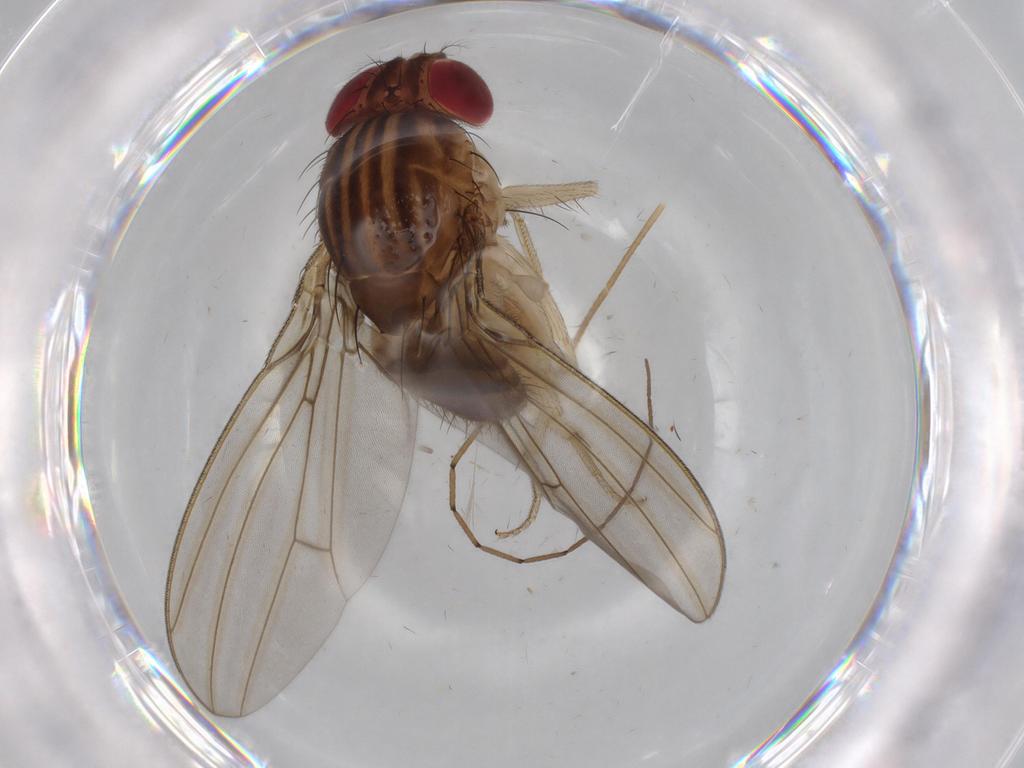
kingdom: Animalia
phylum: Arthropoda
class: Insecta
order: Diptera
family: Drosophilidae
